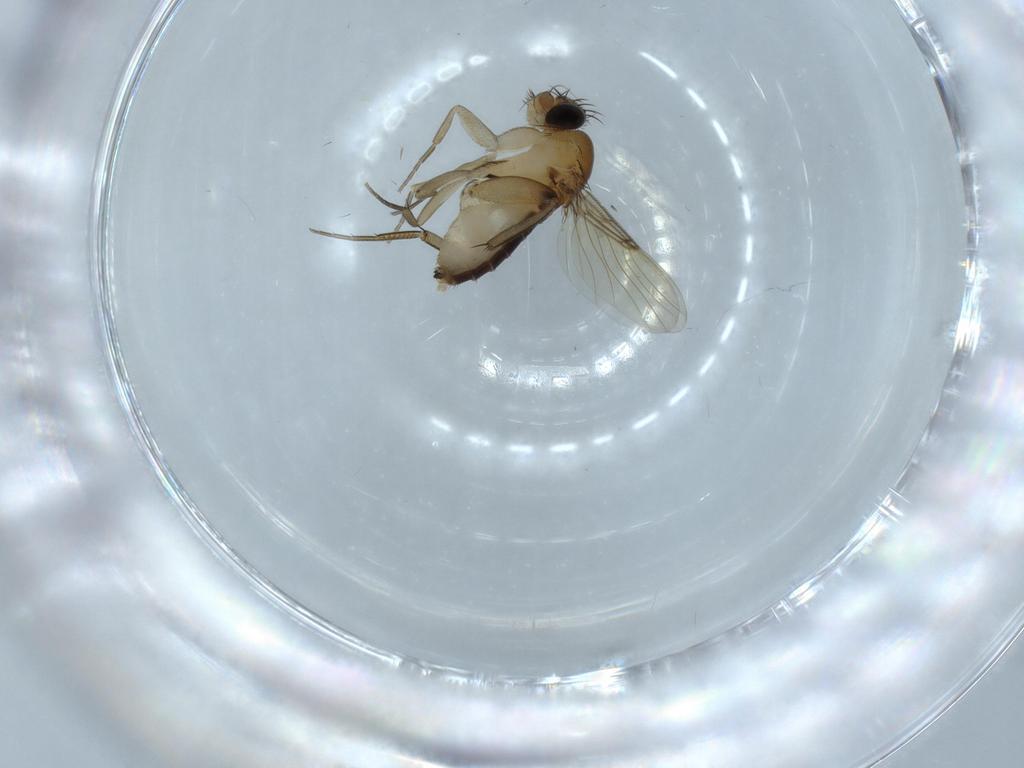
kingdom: Animalia
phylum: Arthropoda
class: Insecta
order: Diptera
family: Phoridae
